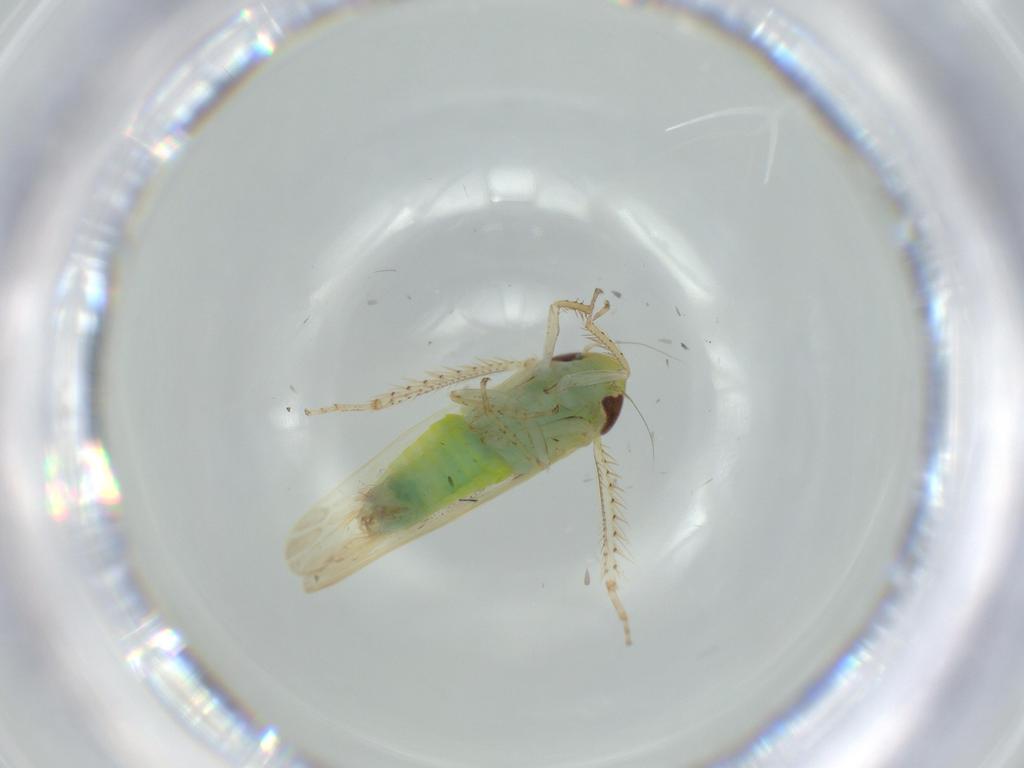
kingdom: Animalia
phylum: Arthropoda
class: Insecta
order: Hemiptera
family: Cicadellidae
